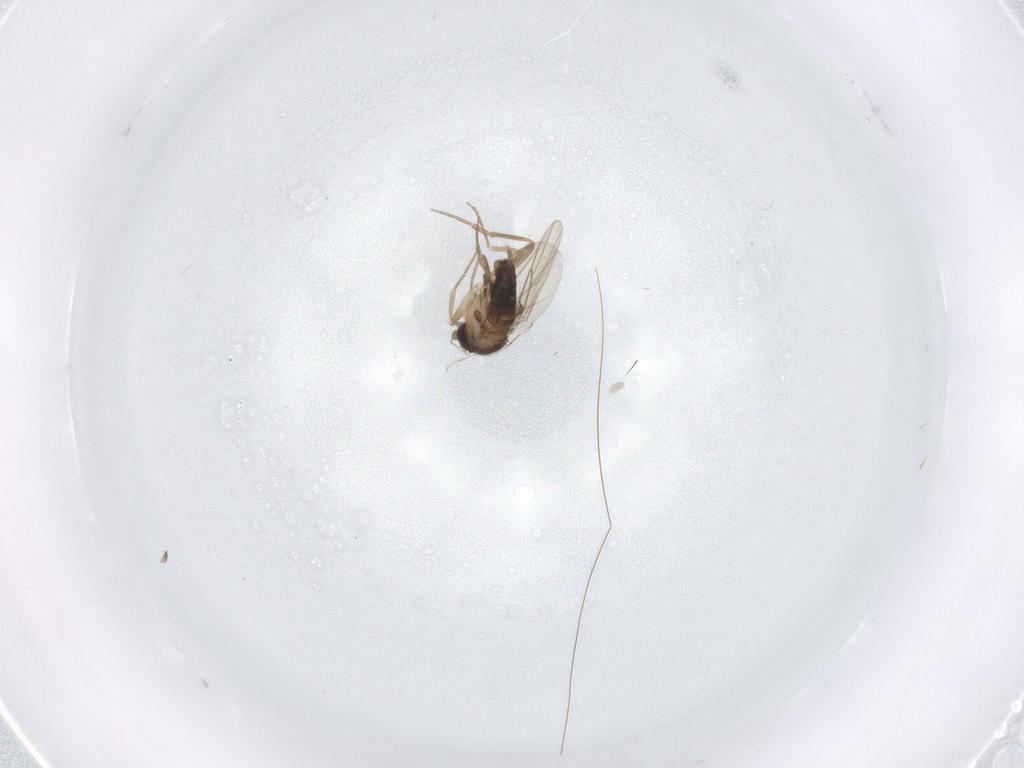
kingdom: Animalia
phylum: Arthropoda
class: Insecta
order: Diptera
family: Phoridae
